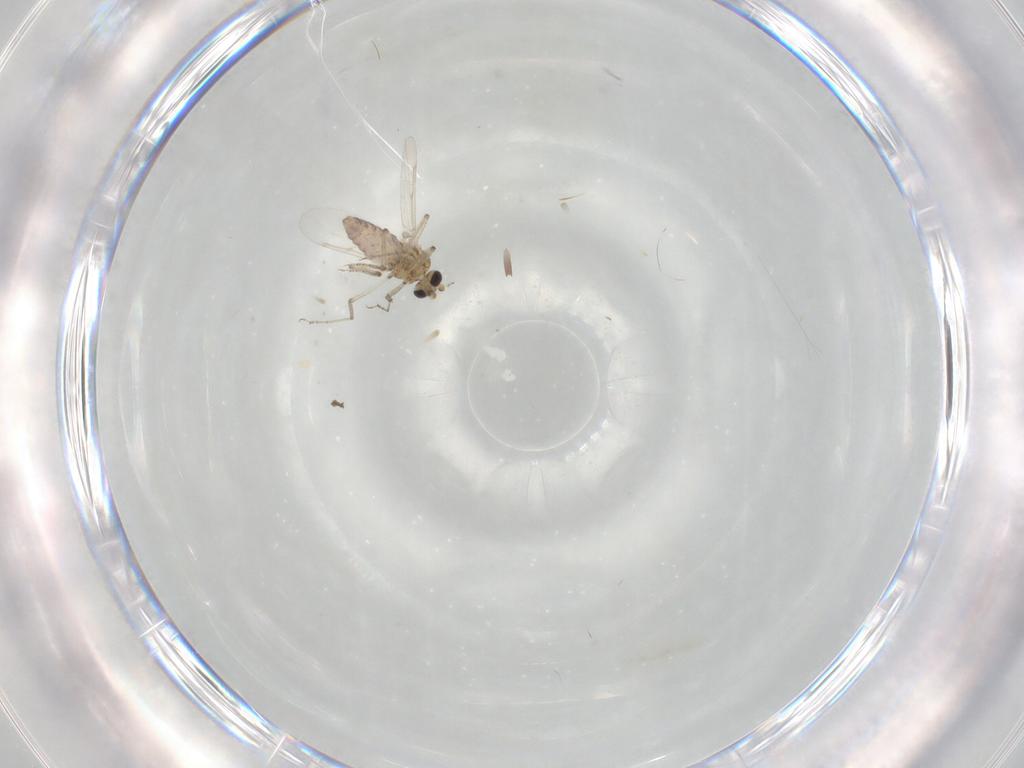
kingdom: Animalia
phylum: Arthropoda
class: Insecta
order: Diptera
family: Ceratopogonidae
